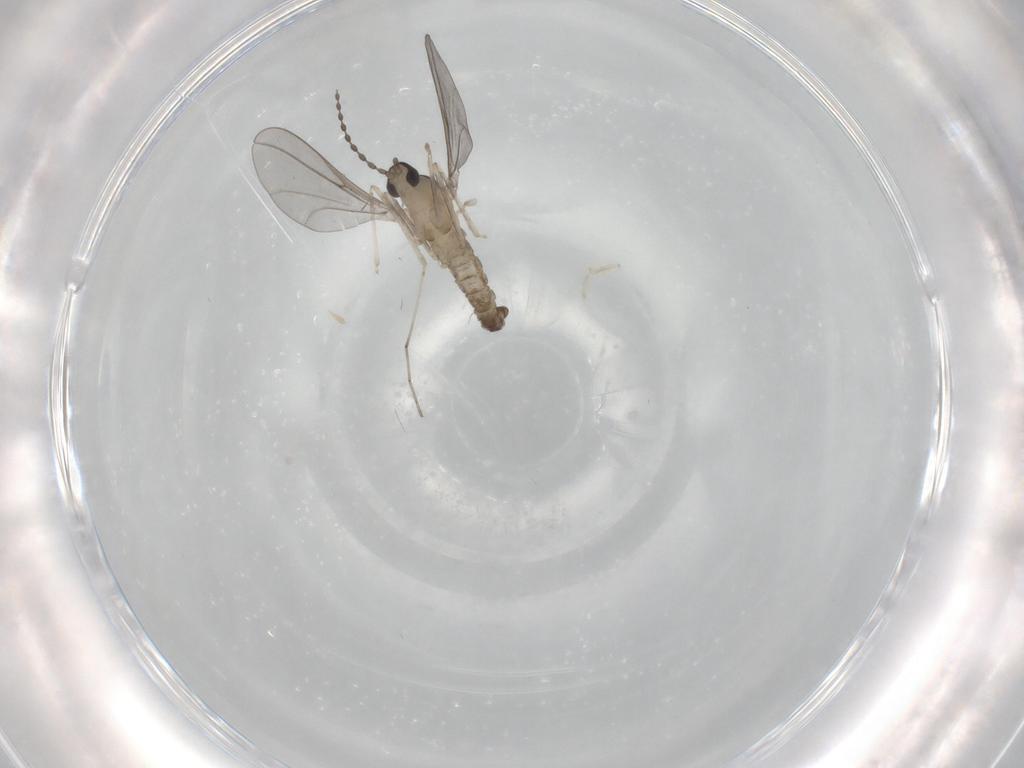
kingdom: Animalia
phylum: Arthropoda
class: Insecta
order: Diptera
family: Cecidomyiidae
